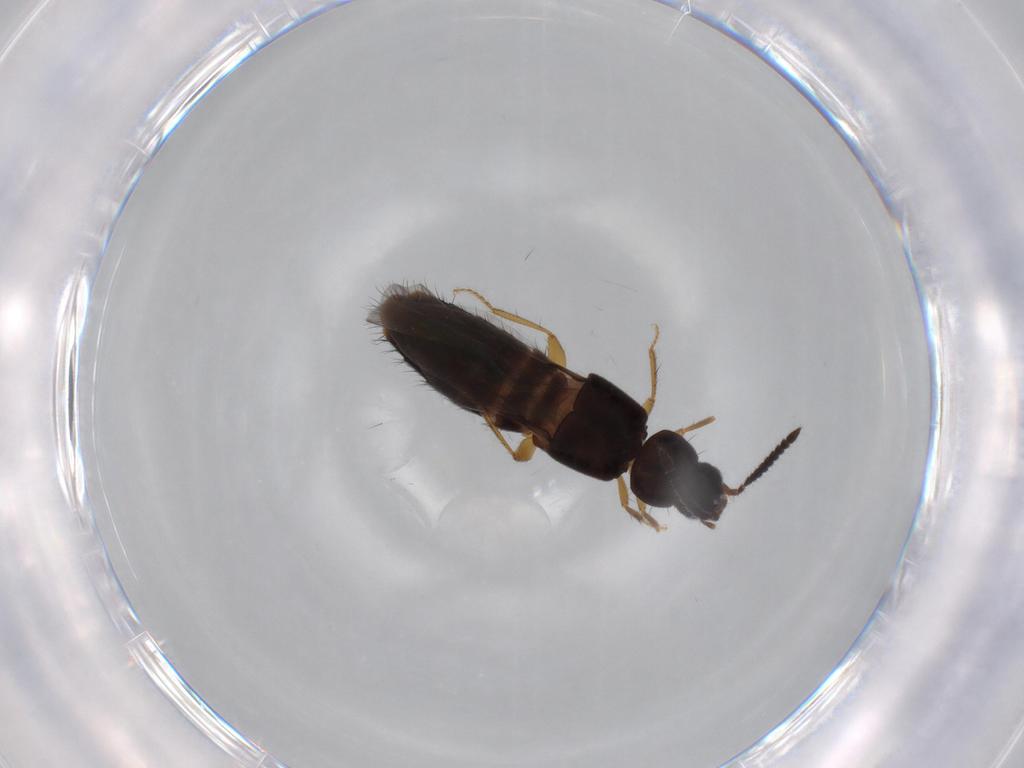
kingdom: Animalia
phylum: Arthropoda
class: Insecta
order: Coleoptera
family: Staphylinidae
